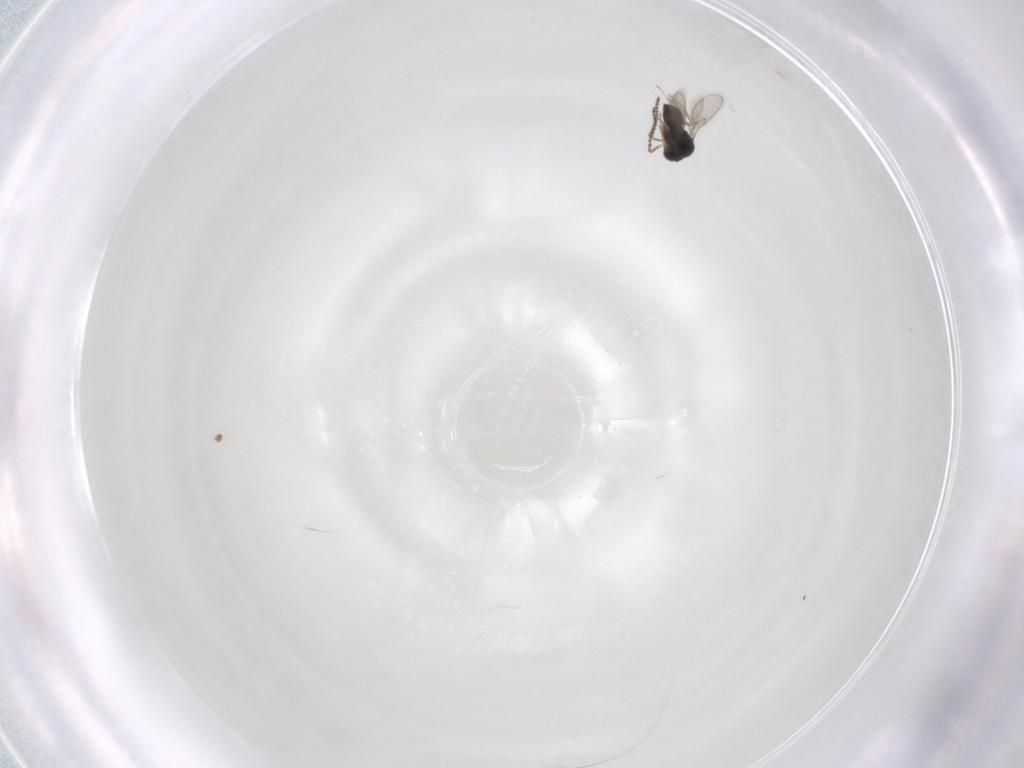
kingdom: Animalia
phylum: Arthropoda
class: Insecta
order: Hymenoptera
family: Scelionidae
